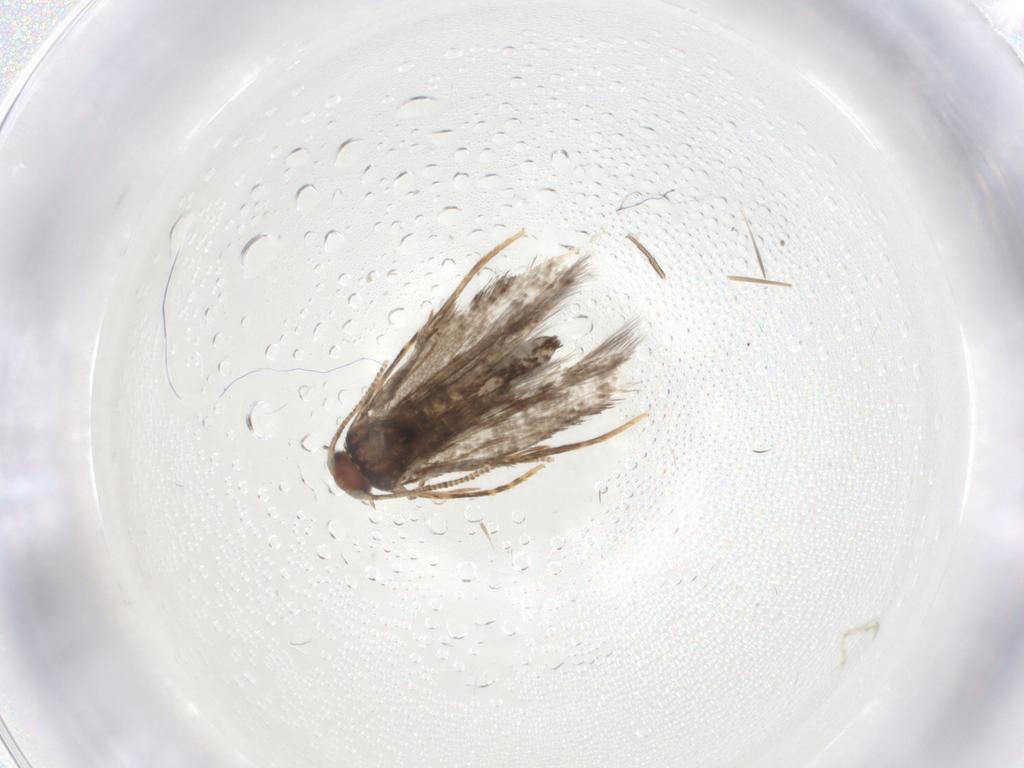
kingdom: Animalia
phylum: Arthropoda
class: Insecta
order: Lepidoptera
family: Tineidae
